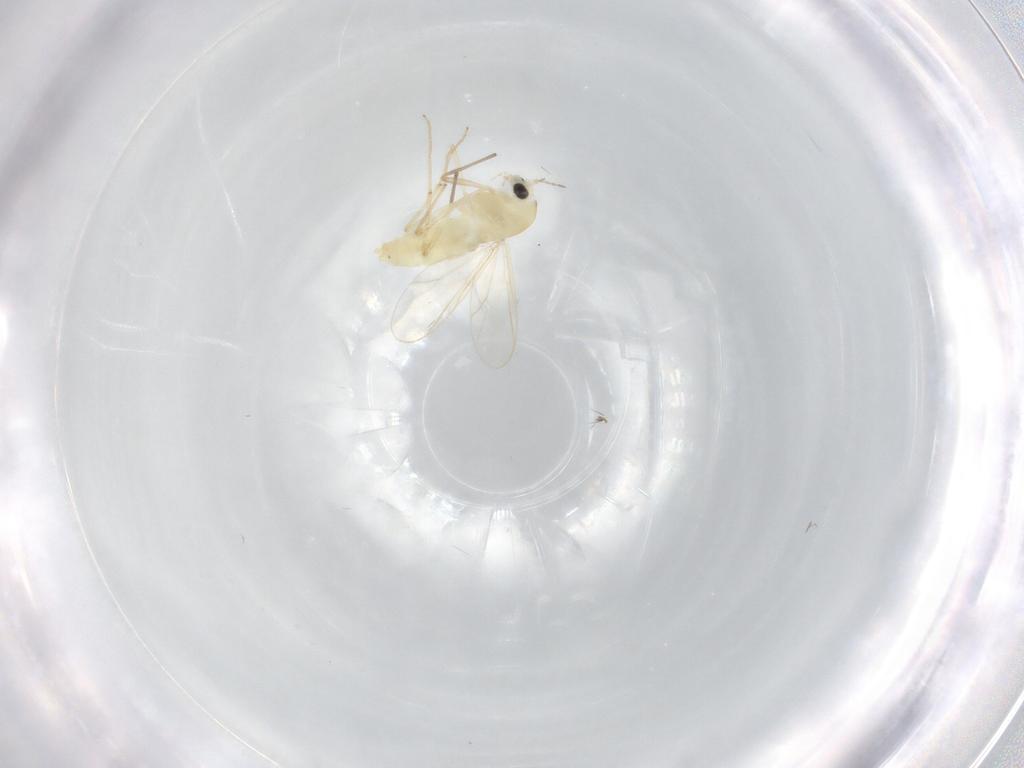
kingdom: Animalia
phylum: Arthropoda
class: Insecta
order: Diptera
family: Chironomidae
